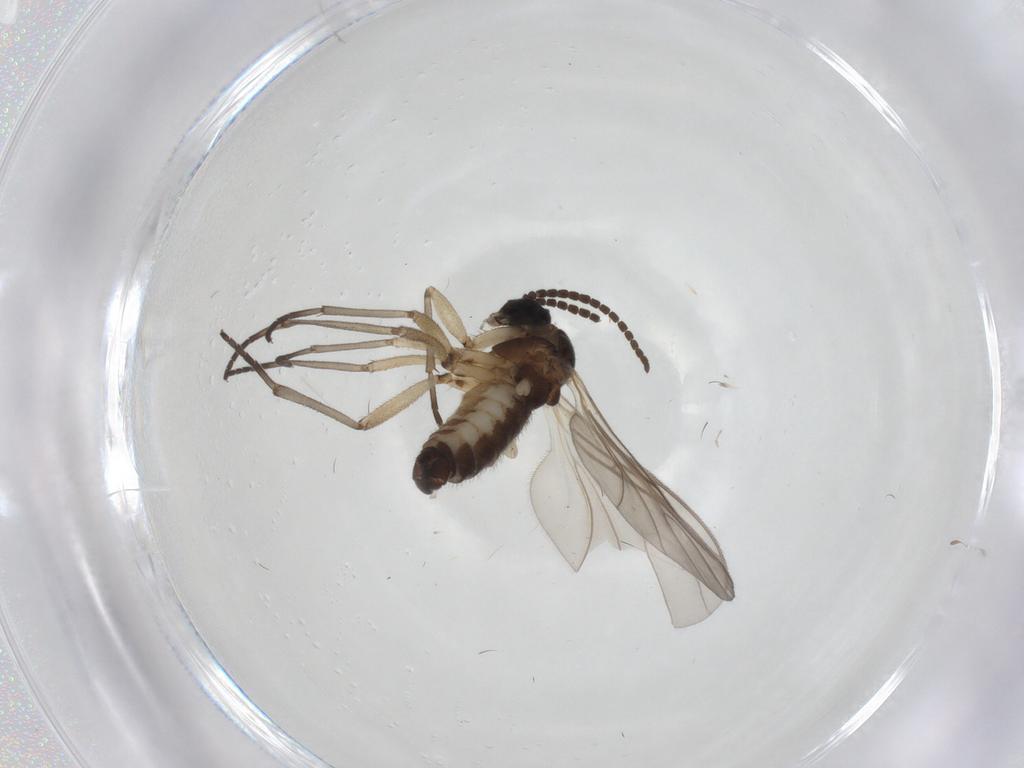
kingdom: Animalia
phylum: Arthropoda
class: Insecta
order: Diptera
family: Sciaridae
